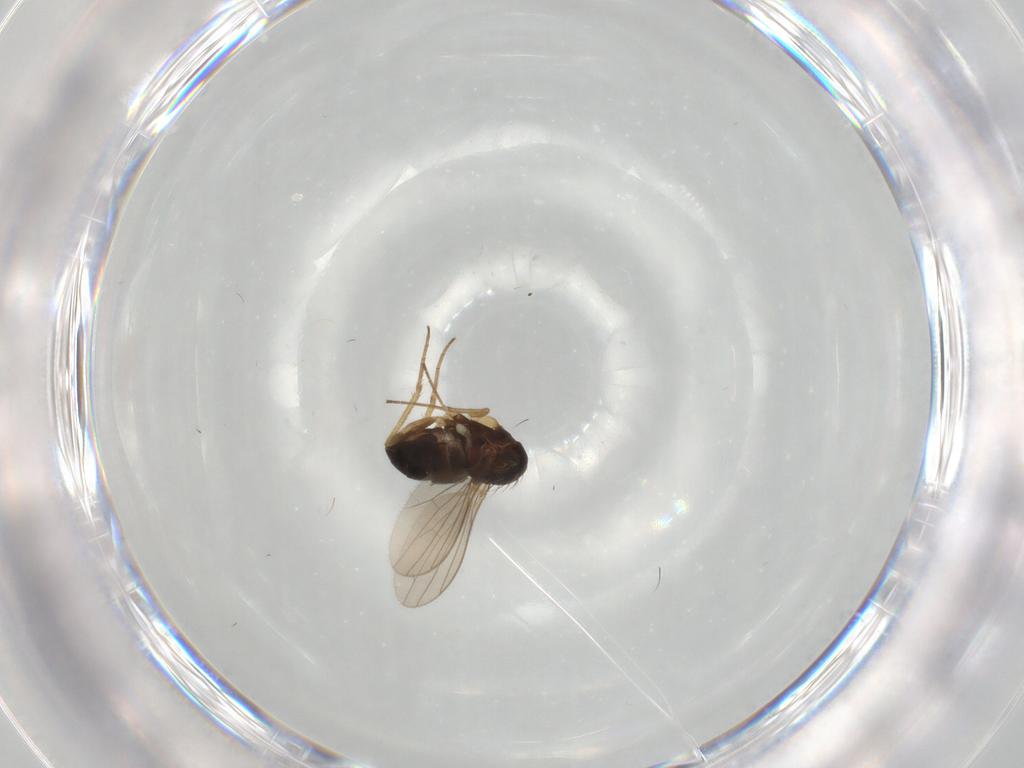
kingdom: Animalia
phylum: Arthropoda
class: Insecta
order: Diptera
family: Dolichopodidae
